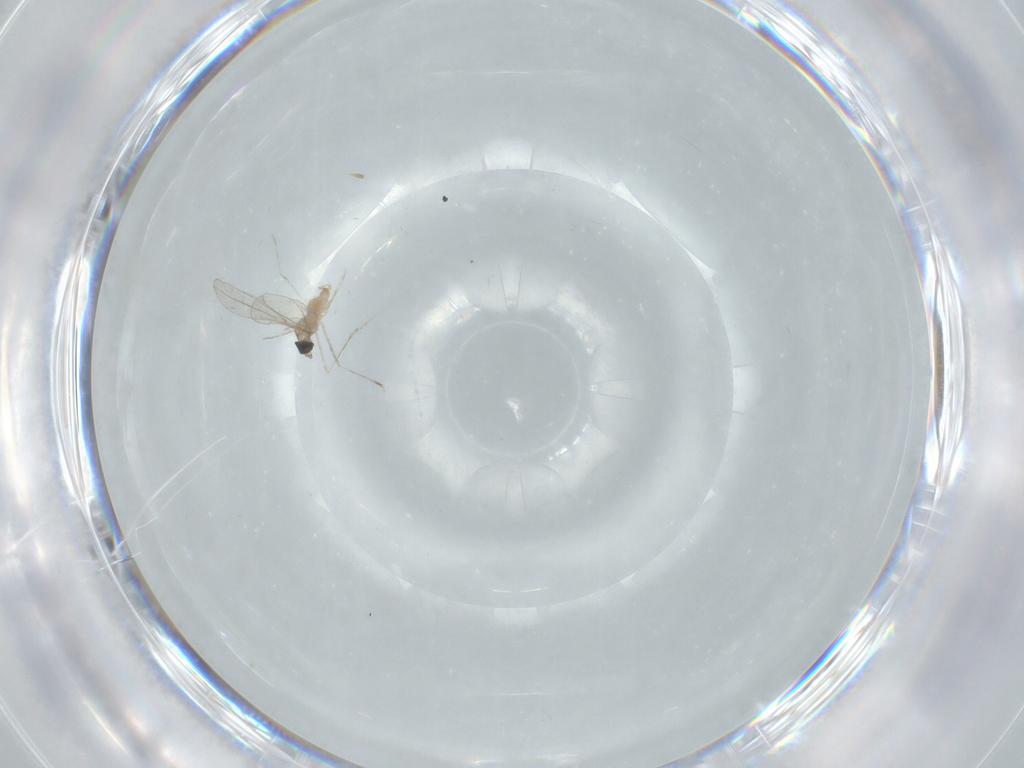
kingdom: Animalia
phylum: Arthropoda
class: Insecta
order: Diptera
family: Cecidomyiidae
